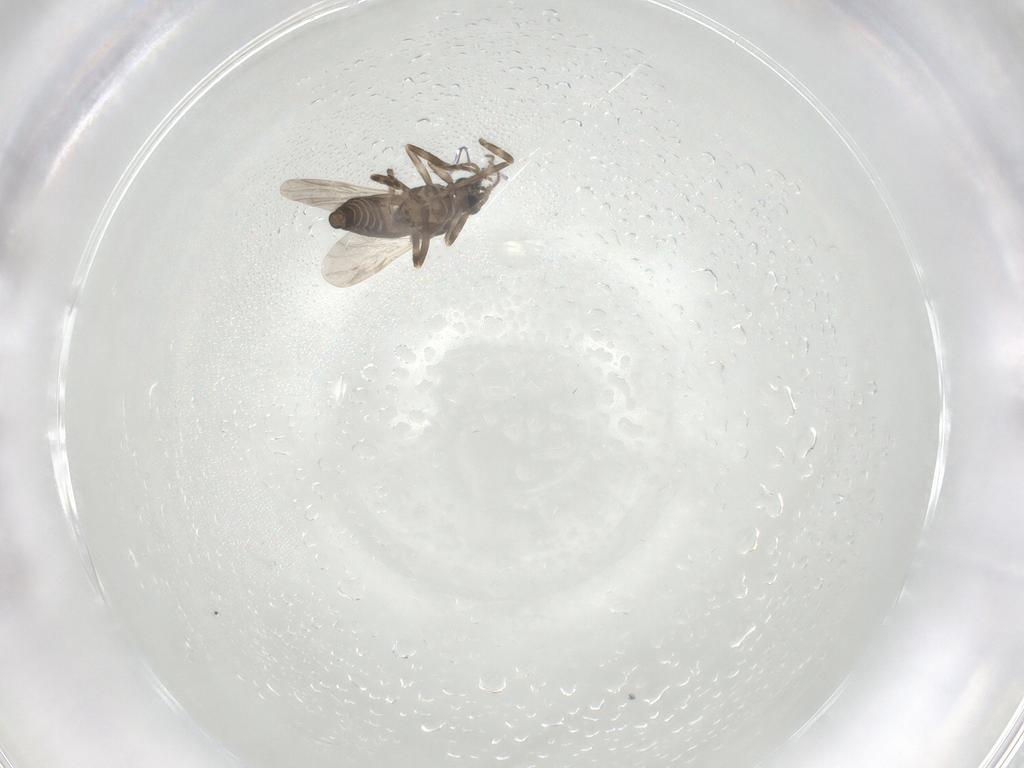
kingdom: Animalia
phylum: Arthropoda
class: Insecta
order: Diptera
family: Ceratopogonidae
